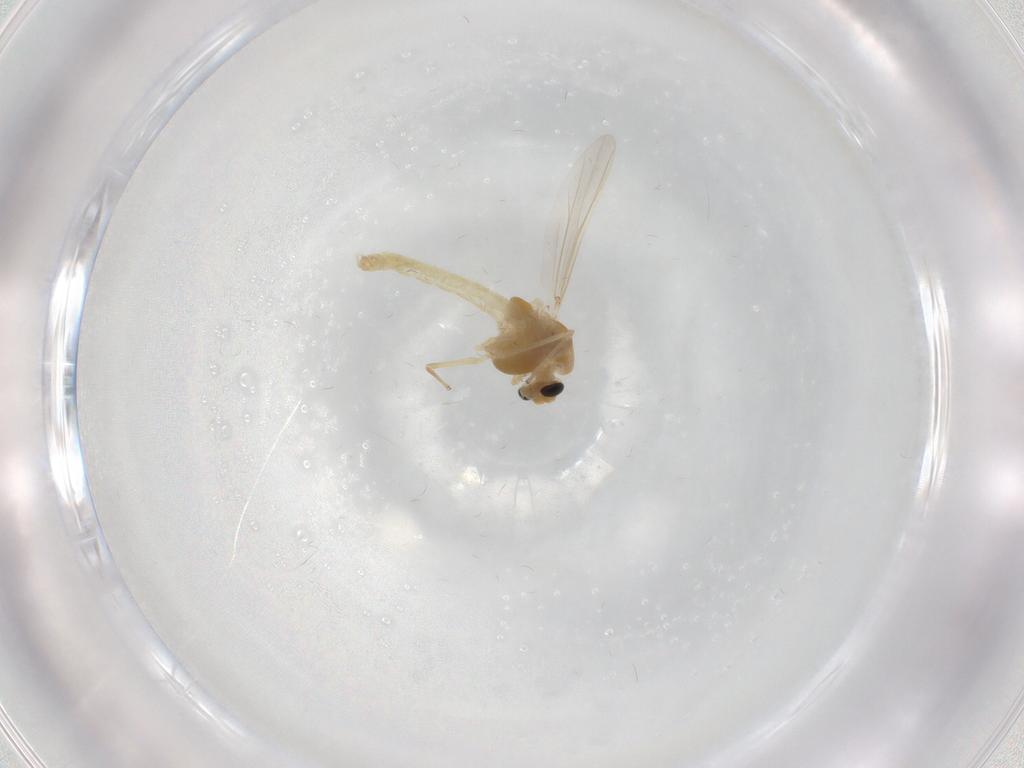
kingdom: Animalia
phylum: Arthropoda
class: Insecta
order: Diptera
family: Chironomidae
